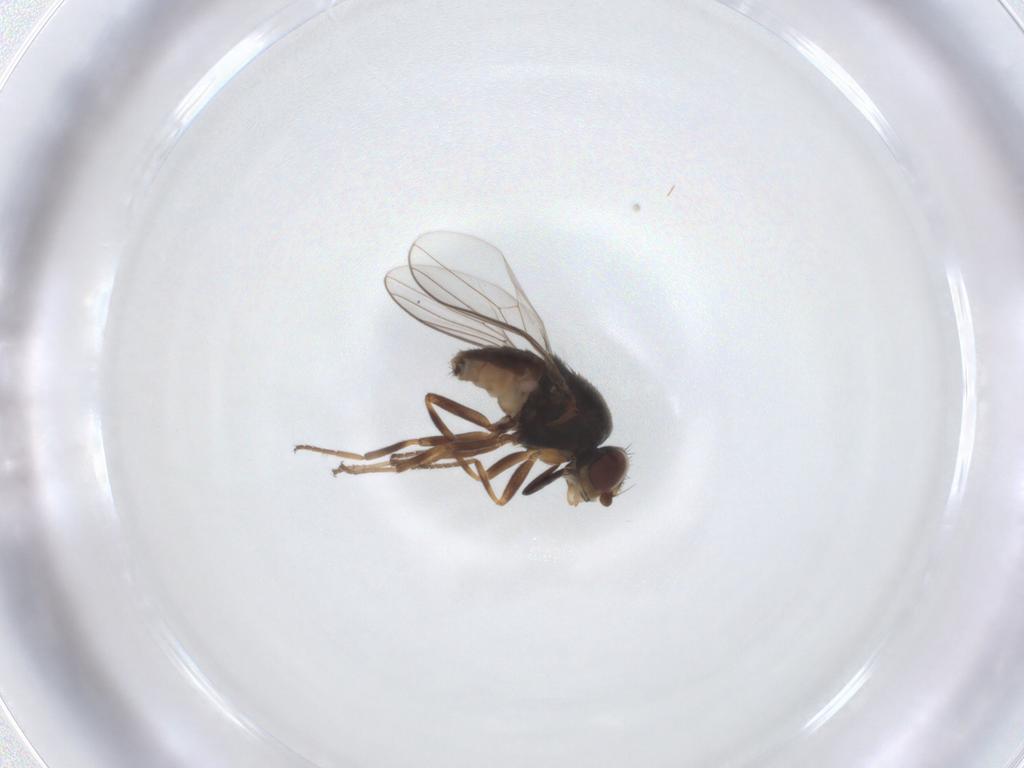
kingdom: Animalia
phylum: Arthropoda
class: Insecta
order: Diptera
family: Chloropidae
